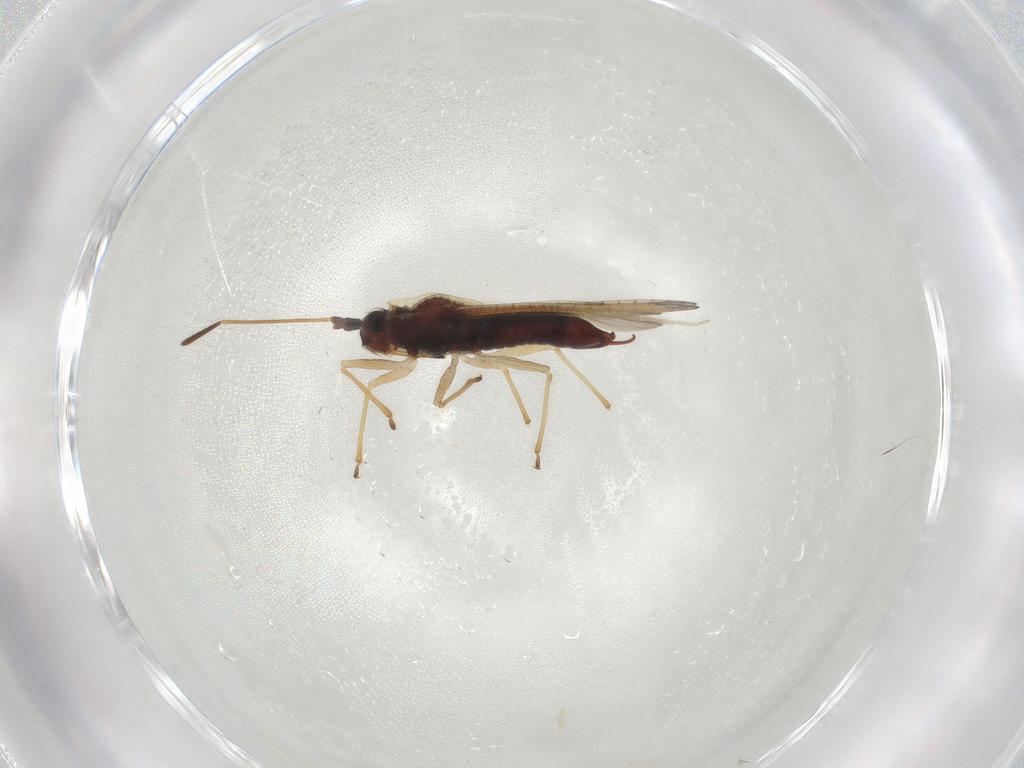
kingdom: Animalia
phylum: Arthropoda
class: Insecta
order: Hemiptera
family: Tingidae
